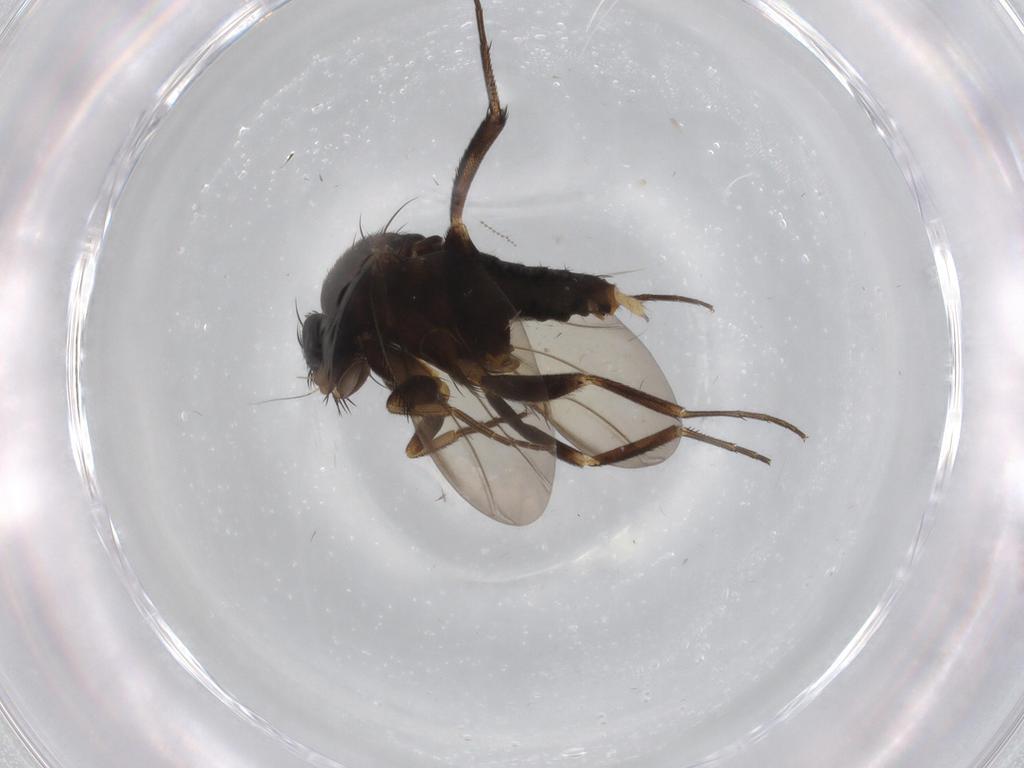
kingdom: Animalia
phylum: Arthropoda
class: Insecta
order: Diptera
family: Phoridae
